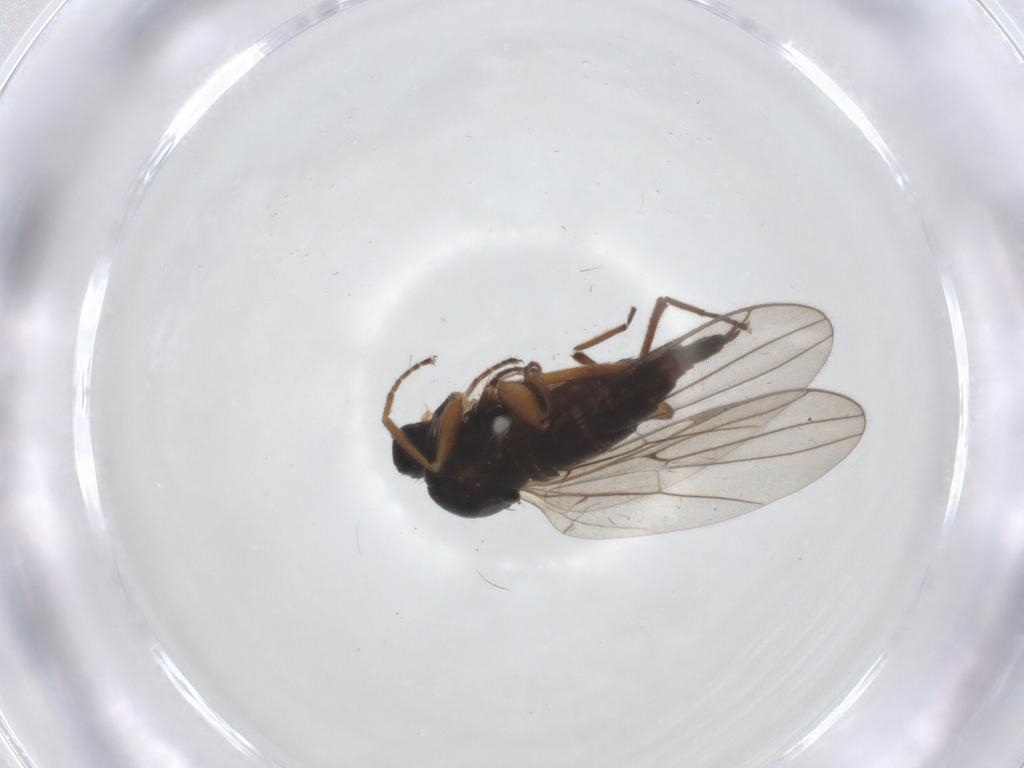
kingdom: Animalia
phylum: Arthropoda
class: Insecta
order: Diptera
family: Hybotidae
